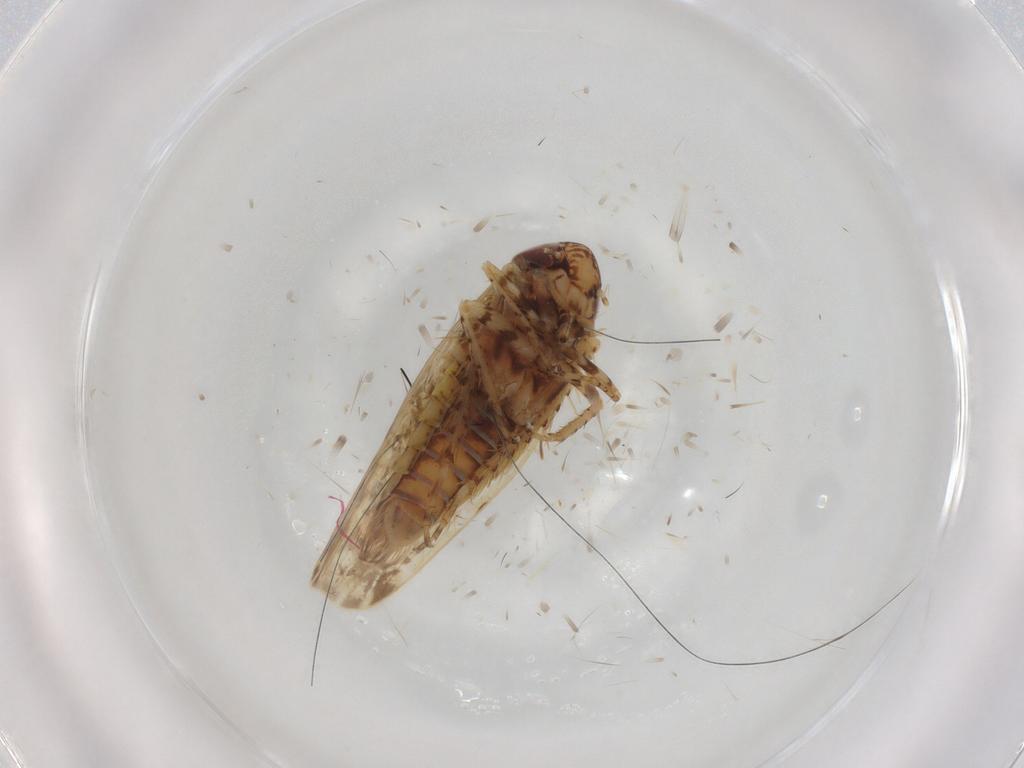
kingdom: Animalia
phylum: Arthropoda
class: Insecta
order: Hemiptera
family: Cicadellidae
